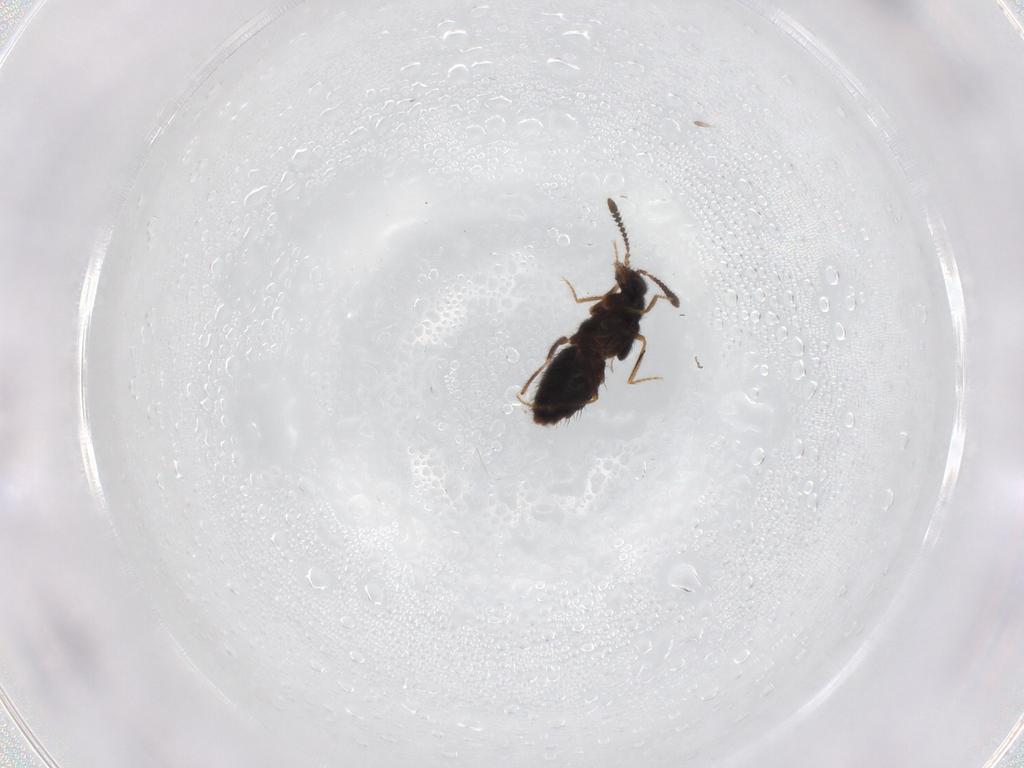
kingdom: Animalia
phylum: Arthropoda
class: Insecta
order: Coleoptera
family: Staphylinidae
